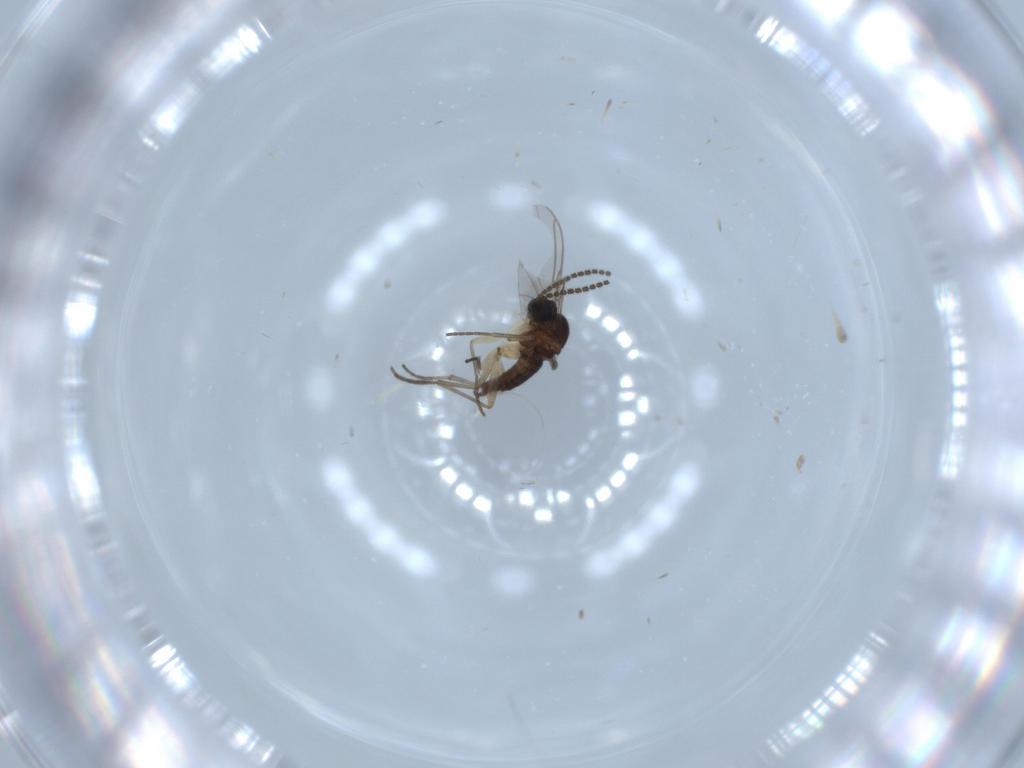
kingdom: Animalia
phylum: Arthropoda
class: Insecta
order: Diptera
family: Sciaridae
